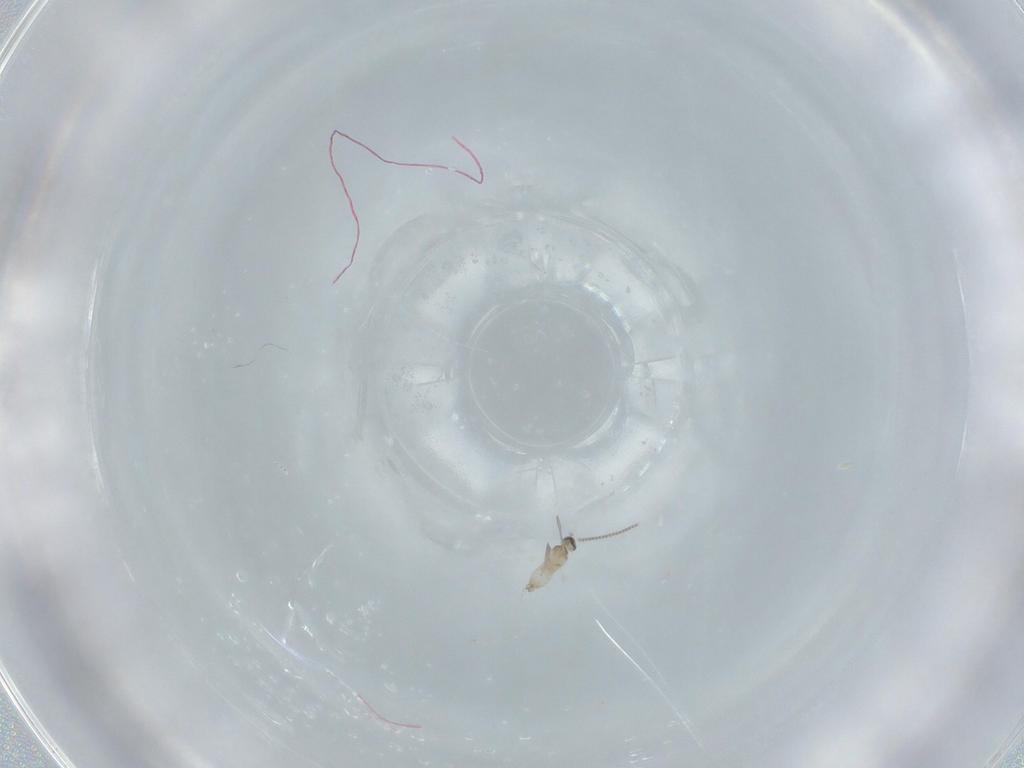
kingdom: Animalia
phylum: Arthropoda
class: Insecta
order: Diptera
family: Cecidomyiidae
